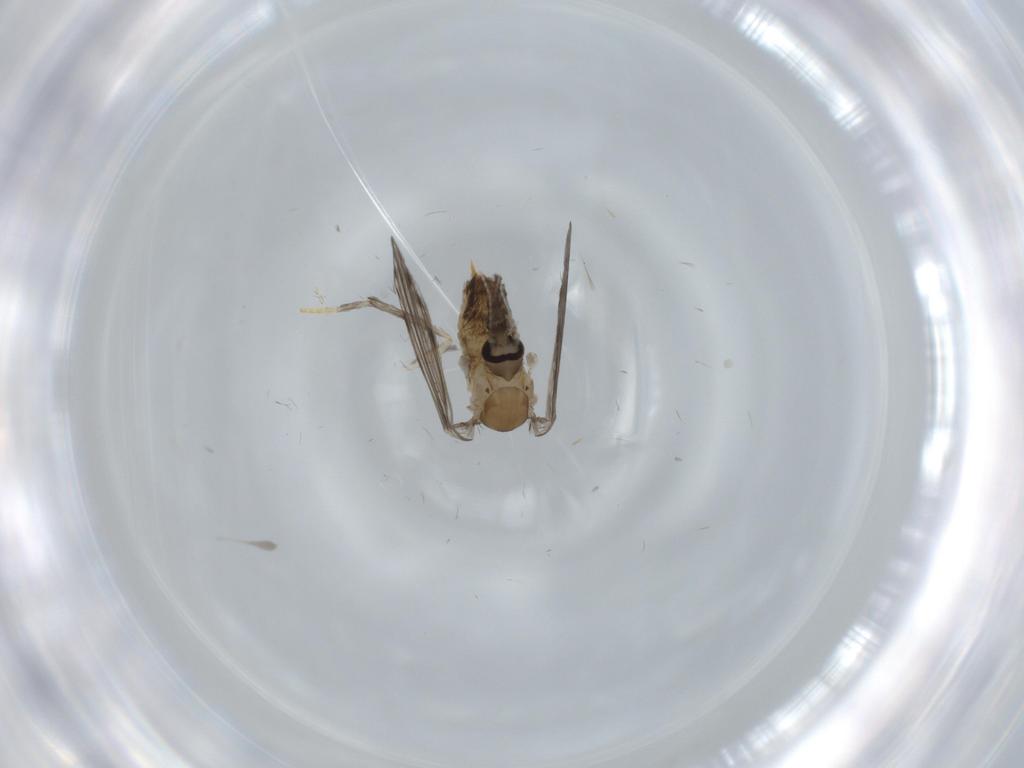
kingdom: Animalia
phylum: Arthropoda
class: Insecta
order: Diptera
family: Psychodidae
